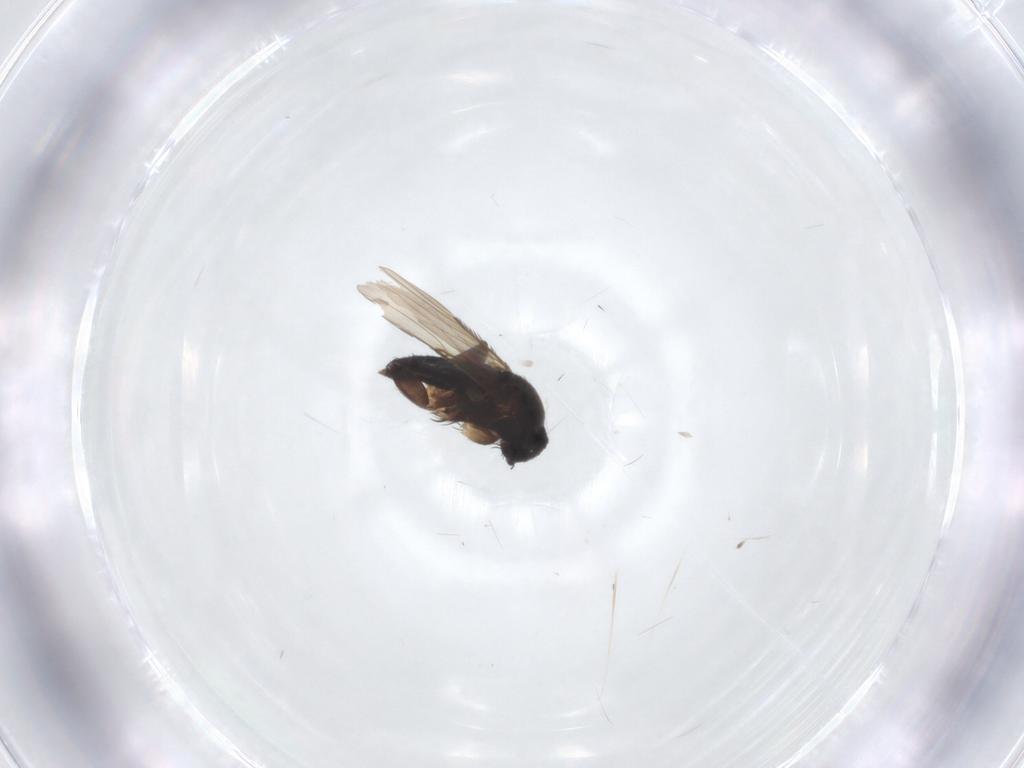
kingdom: Animalia
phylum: Arthropoda
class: Insecta
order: Diptera
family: Phoridae
